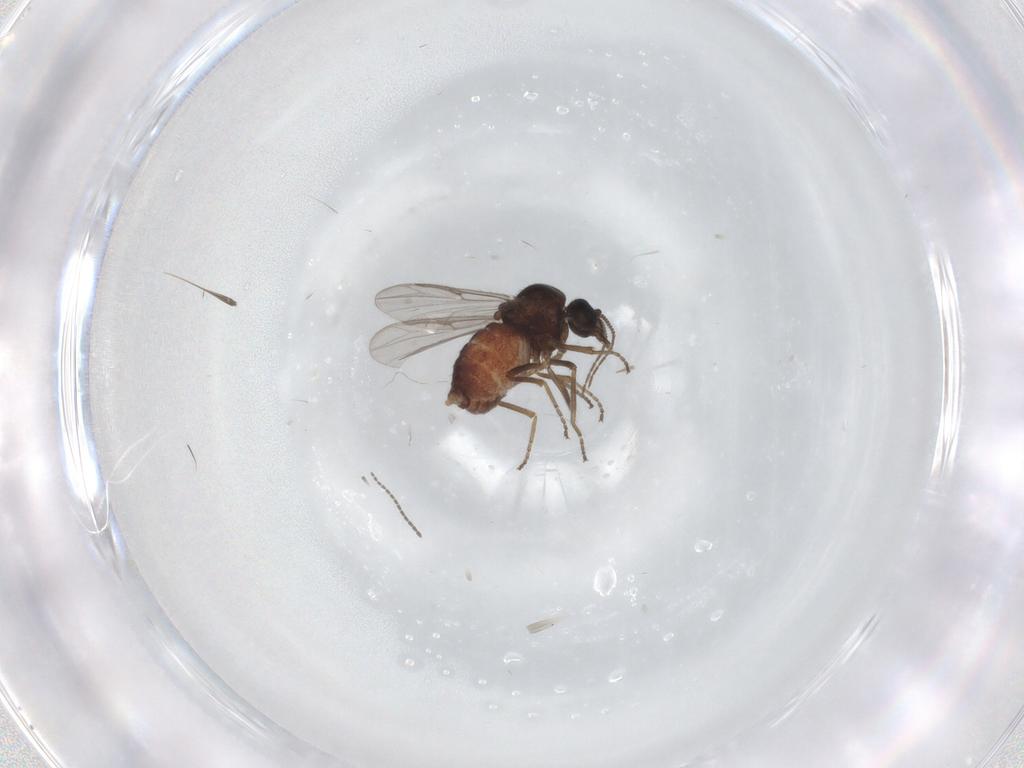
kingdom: Animalia
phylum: Arthropoda
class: Insecta
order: Diptera
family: Ceratopogonidae
